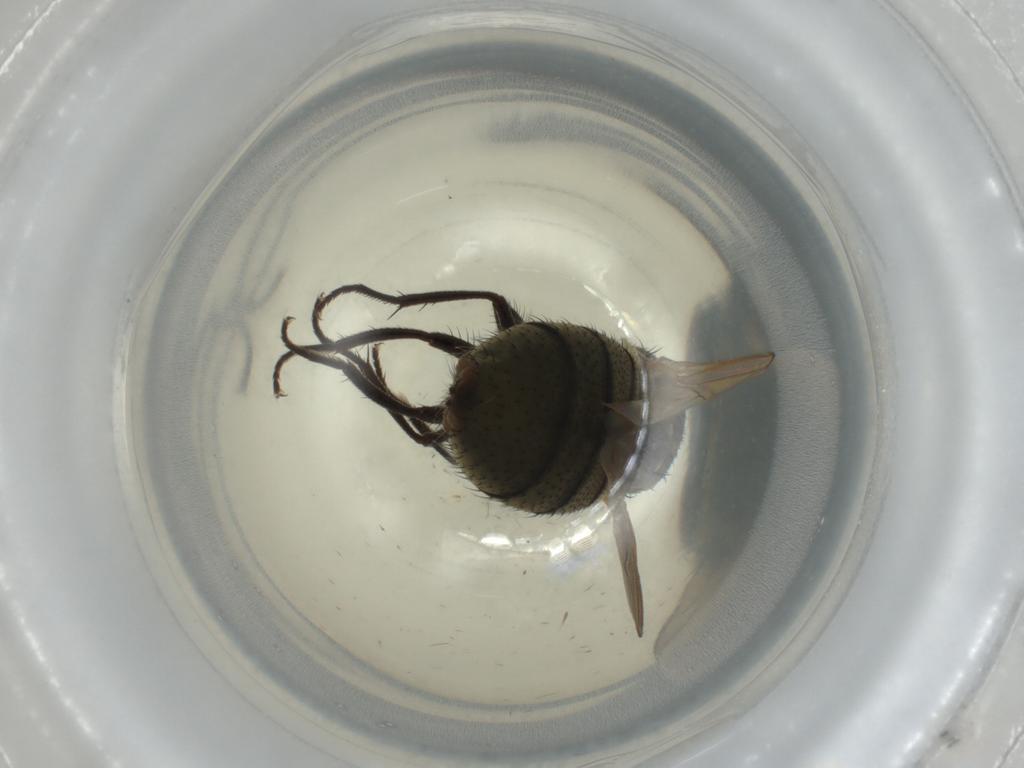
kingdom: Animalia
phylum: Arthropoda
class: Insecta
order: Diptera
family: Muscidae
